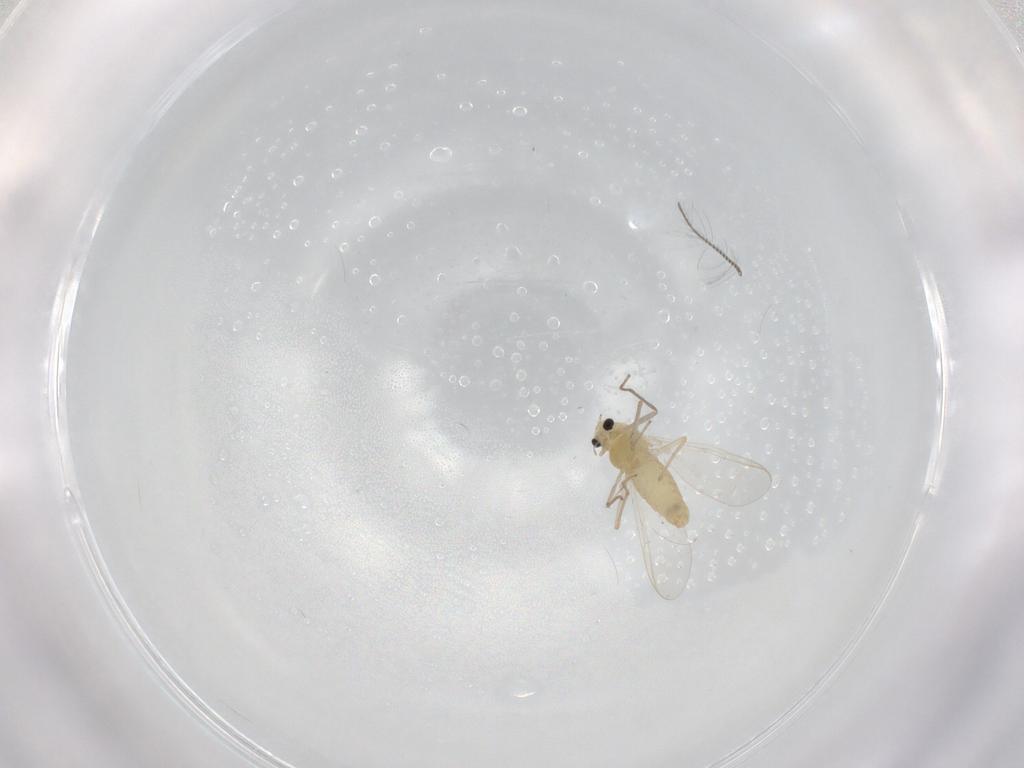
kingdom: Animalia
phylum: Arthropoda
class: Insecta
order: Diptera
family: Chironomidae
